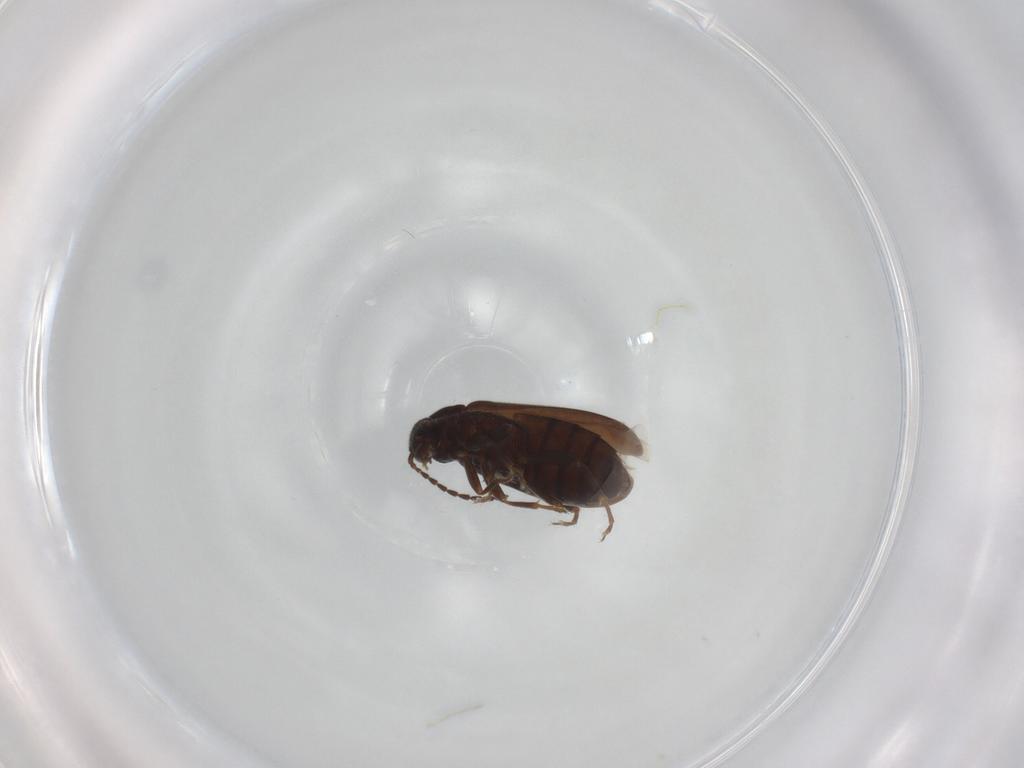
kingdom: Animalia
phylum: Arthropoda
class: Insecta
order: Coleoptera
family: Scraptiidae
